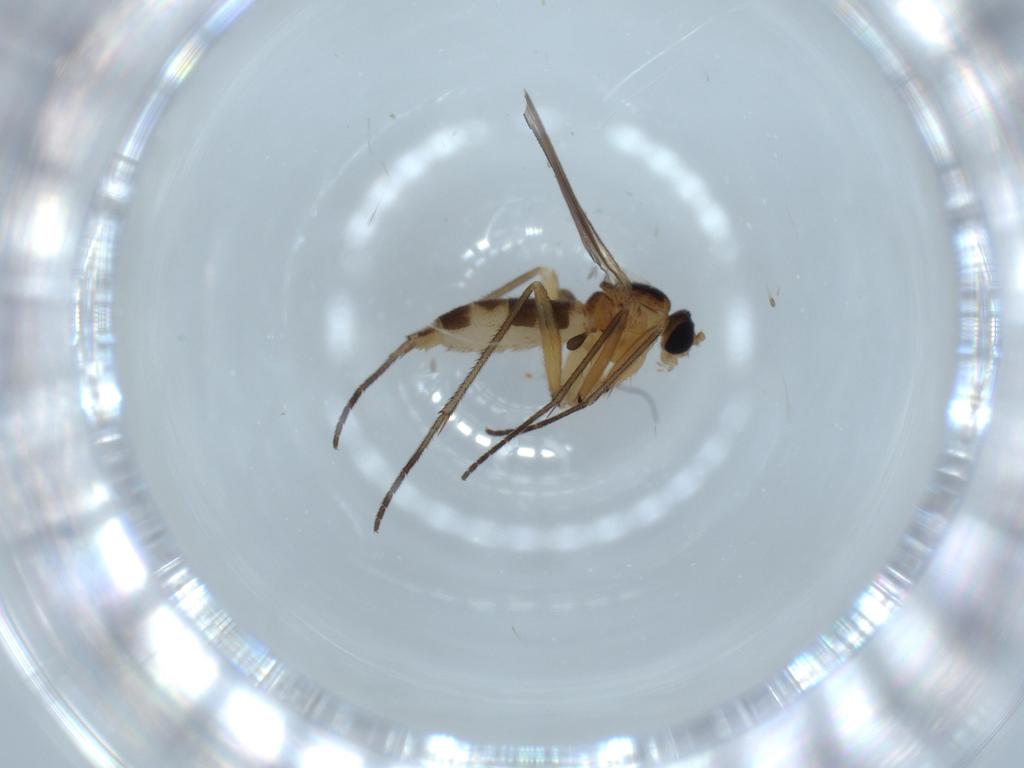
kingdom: Animalia
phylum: Arthropoda
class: Insecta
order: Diptera
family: Sciaridae
